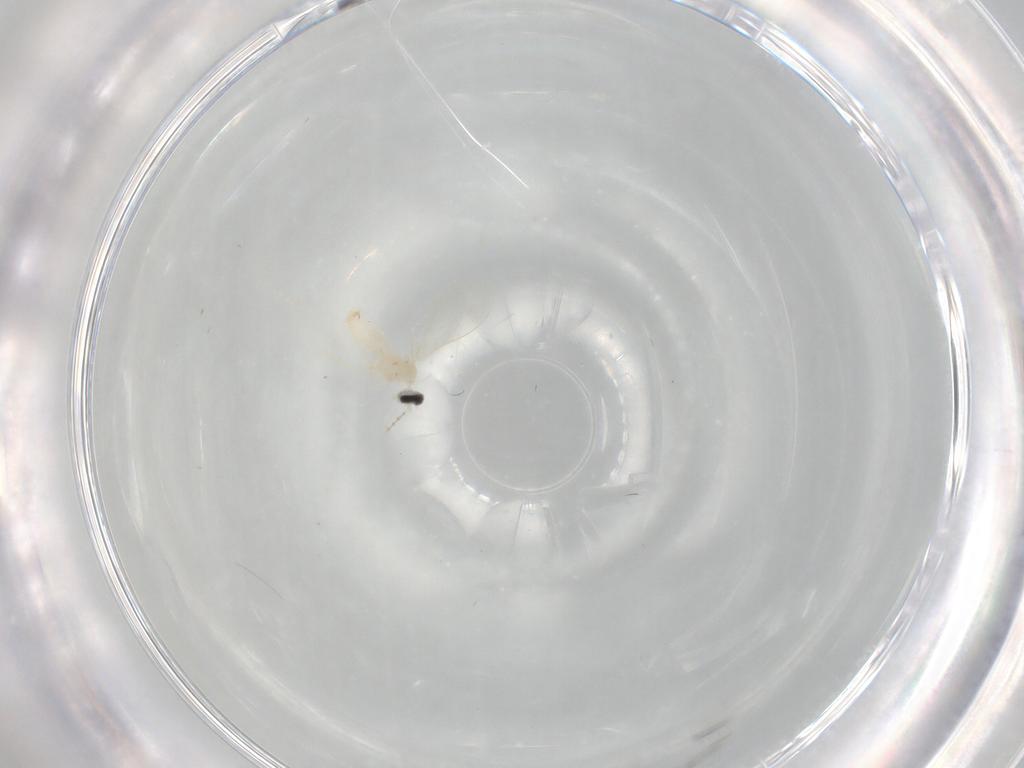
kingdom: Animalia
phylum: Arthropoda
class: Insecta
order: Diptera
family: Cecidomyiidae
